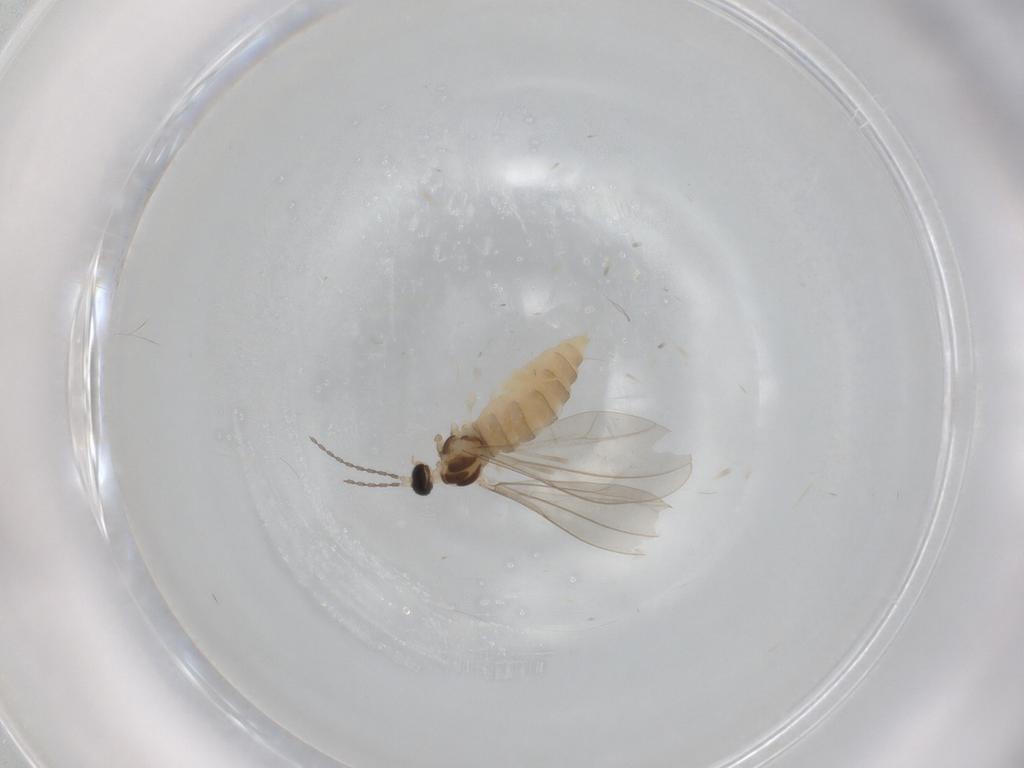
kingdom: Animalia
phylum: Arthropoda
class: Insecta
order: Diptera
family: Cecidomyiidae
